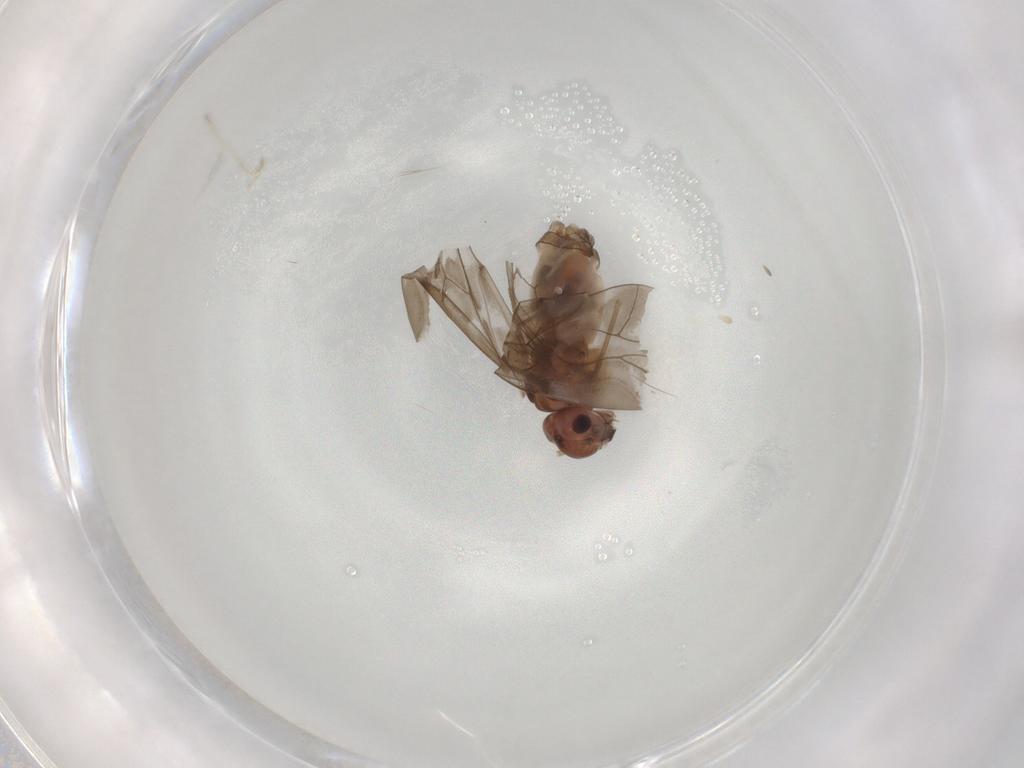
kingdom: Animalia
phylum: Arthropoda
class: Insecta
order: Psocodea
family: Peripsocidae
